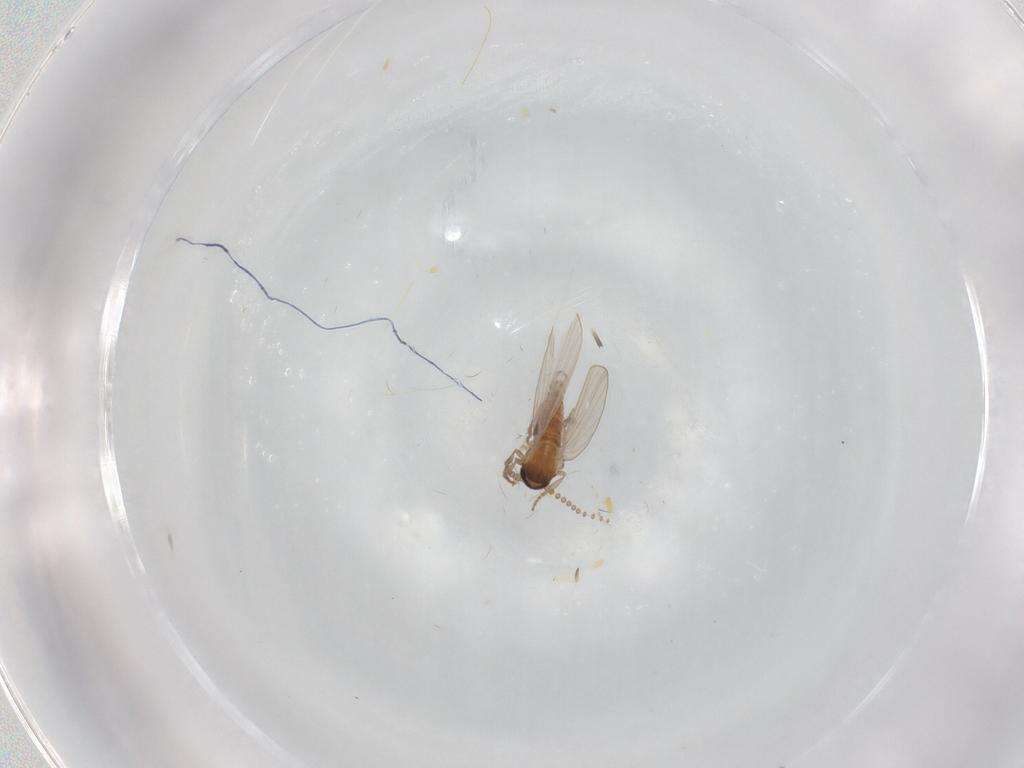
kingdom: Animalia
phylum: Arthropoda
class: Insecta
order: Diptera
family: Psychodidae
